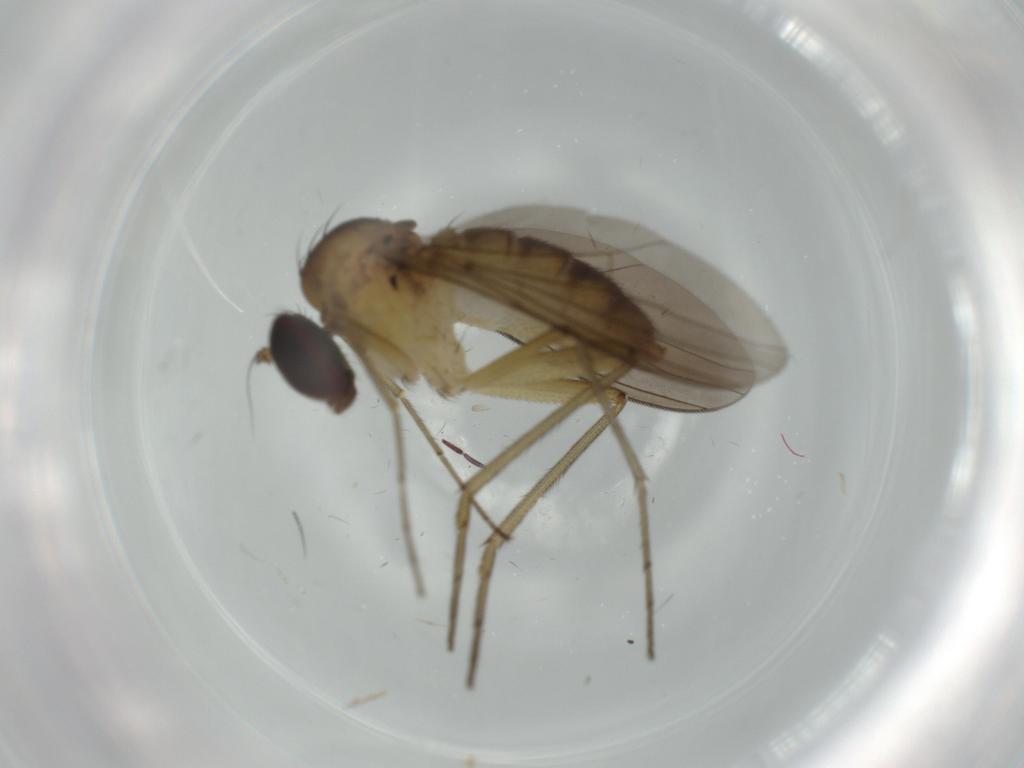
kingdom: Animalia
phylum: Arthropoda
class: Insecta
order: Diptera
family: Dolichopodidae
